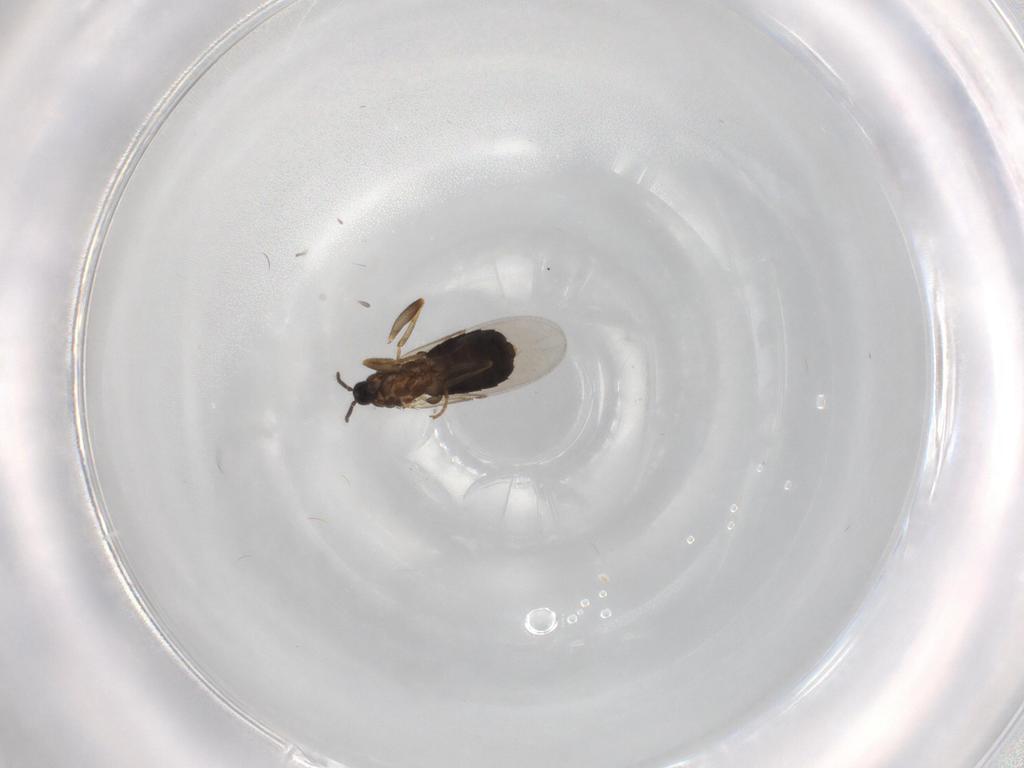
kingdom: Animalia
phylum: Arthropoda
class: Insecta
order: Diptera
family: Scatopsidae
